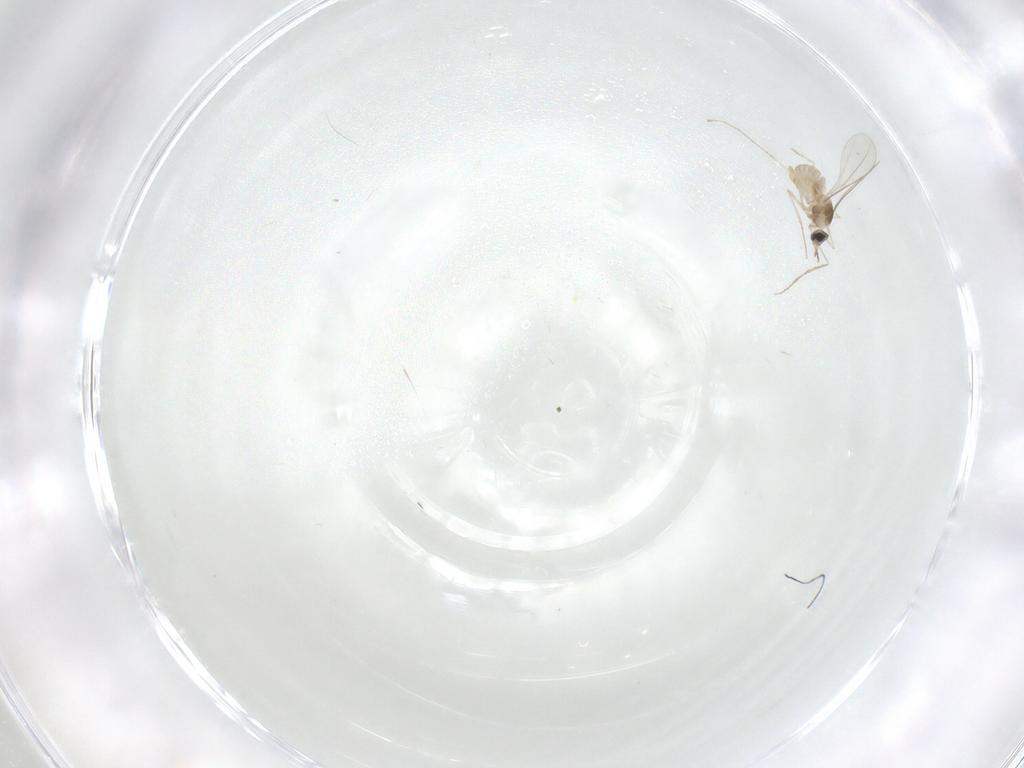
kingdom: Animalia
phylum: Arthropoda
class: Insecta
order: Diptera
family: Cecidomyiidae
